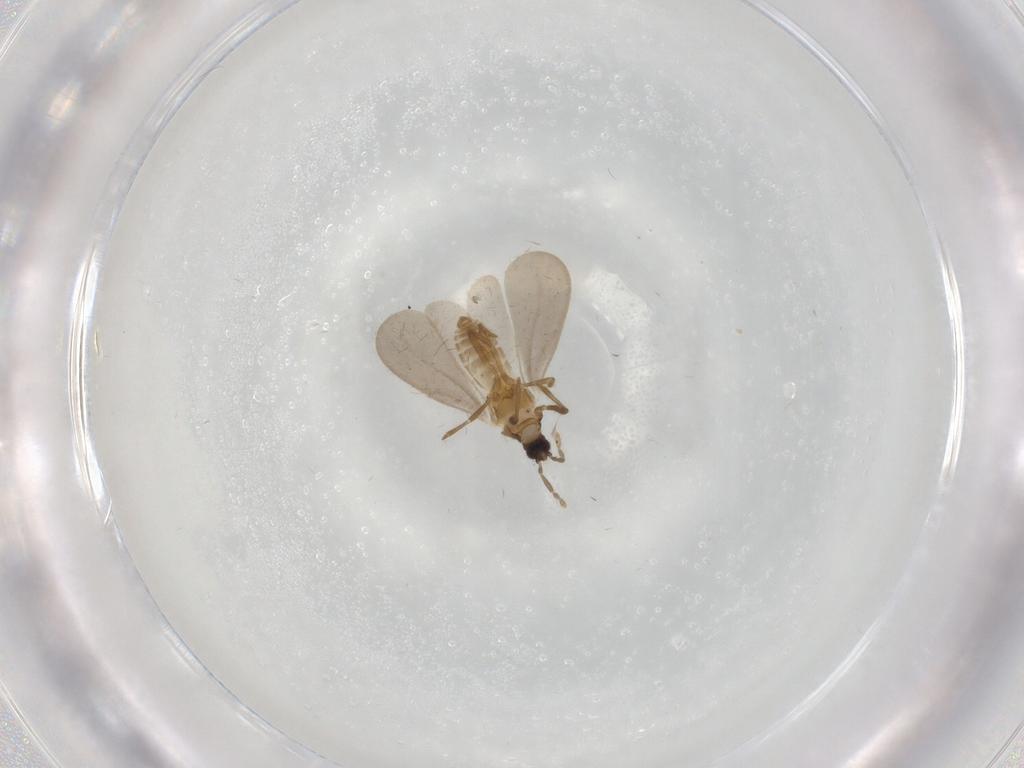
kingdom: Animalia
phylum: Arthropoda
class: Insecta
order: Hemiptera
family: Enicocephalidae
